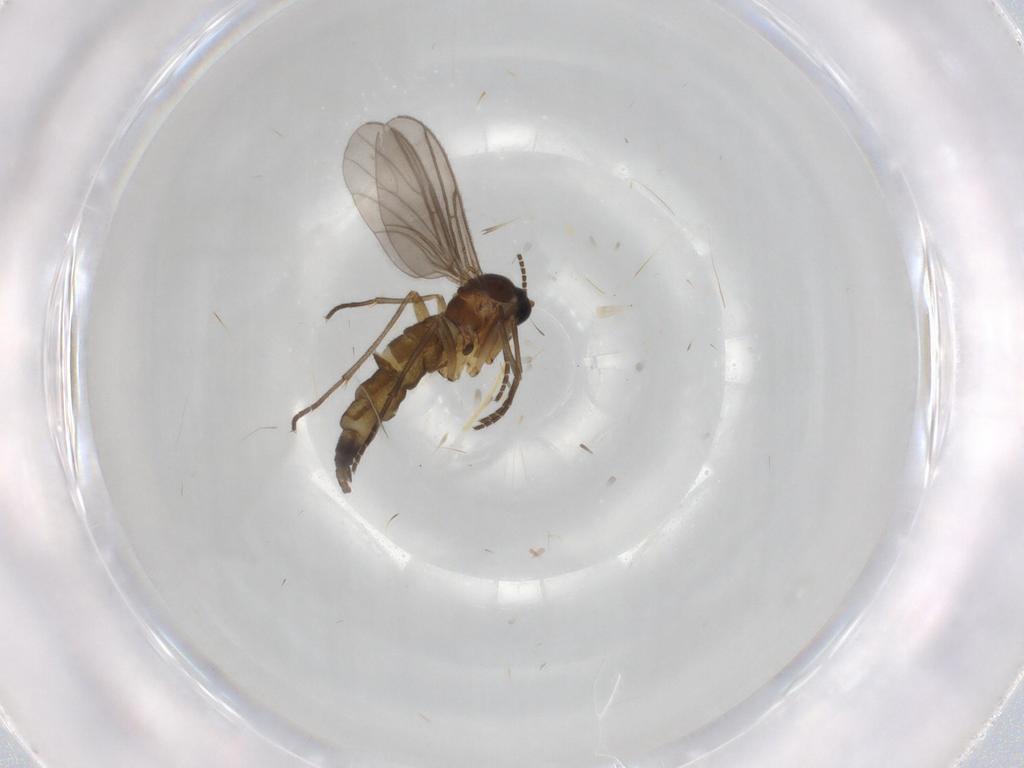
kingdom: Animalia
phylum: Arthropoda
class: Insecta
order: Diptera
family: Sciaridae
